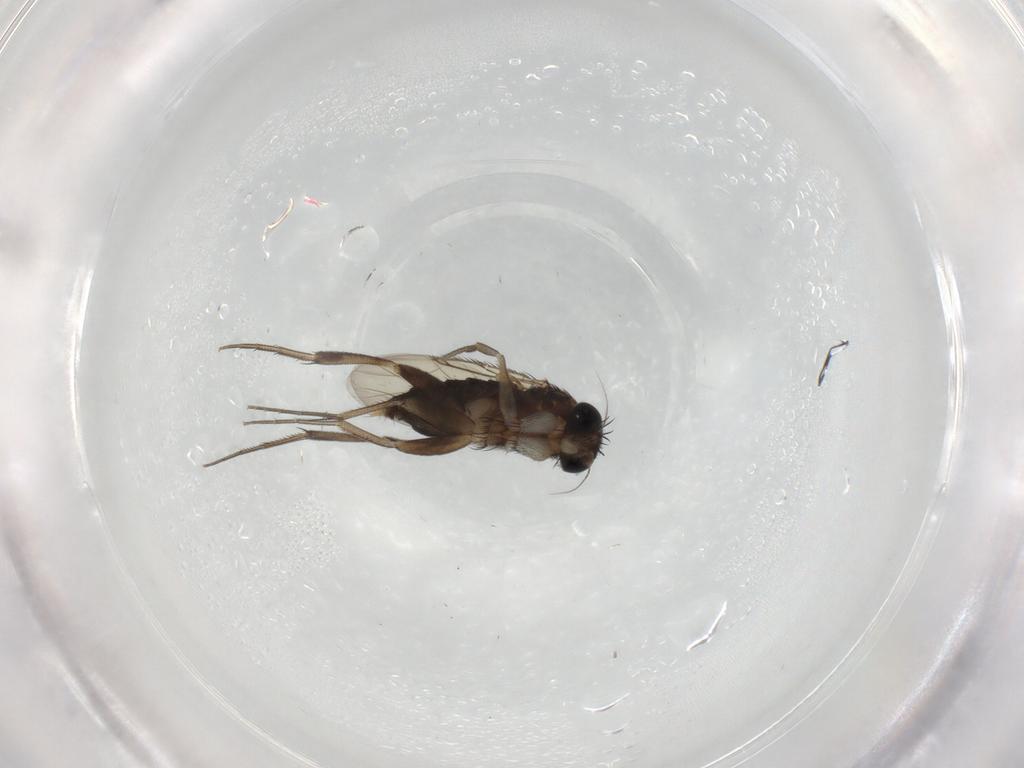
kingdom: Animalia
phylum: Arthropoda
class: Insecta
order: Diptera
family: Phoridae
